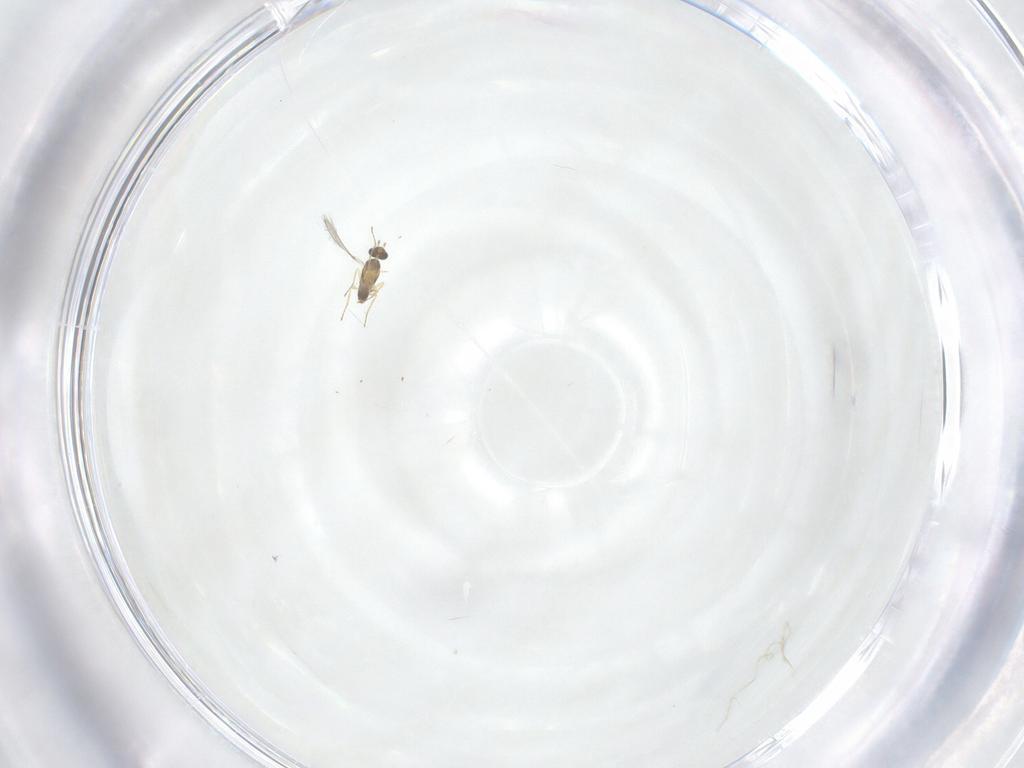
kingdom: Animalia
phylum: Arthropoda
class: Insecta
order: Hymenoptera
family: Mymaridae
